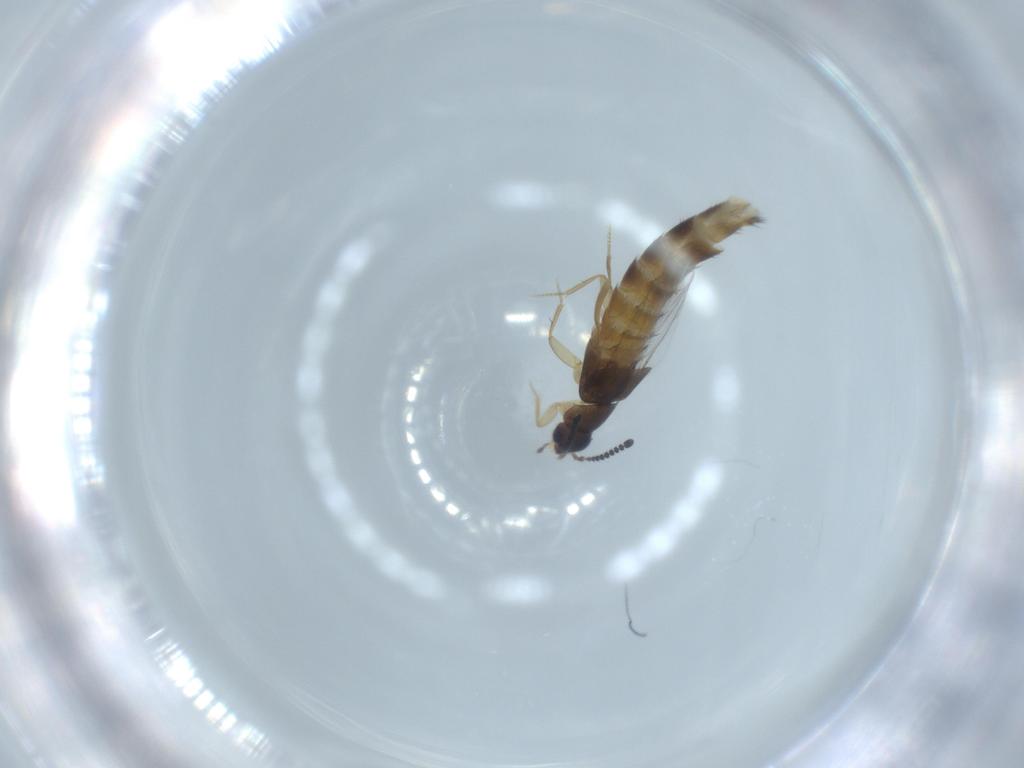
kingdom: Animalia
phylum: Arthropoda
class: Insecta
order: Coleoptera
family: Staphylinidae
